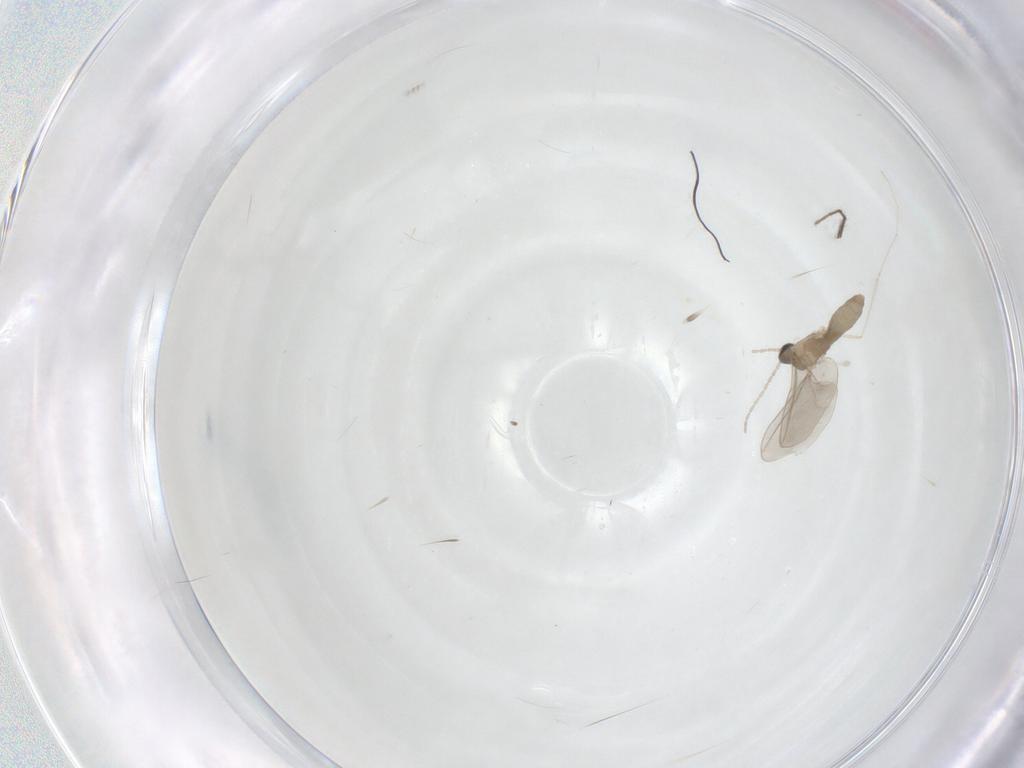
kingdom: Animalia
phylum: Arthropoda
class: Insecta
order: Diptera
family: Cecidomyiidae
